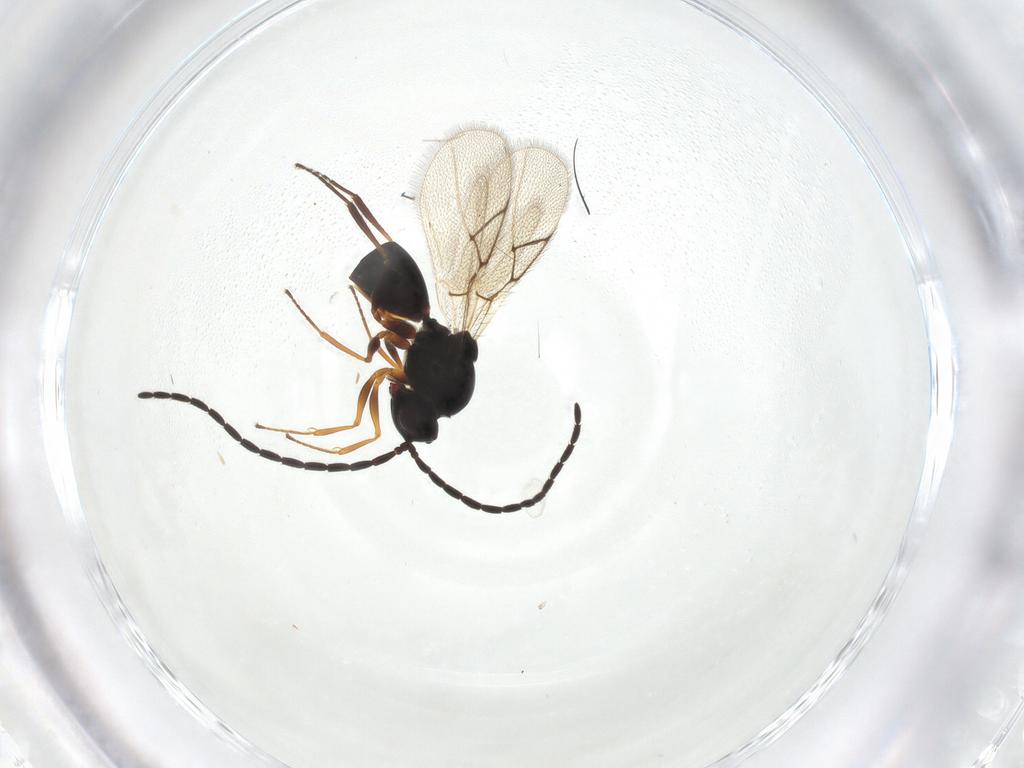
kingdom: Animalia
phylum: Arthropoda
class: Insecta
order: Hymenoptera
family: Figitidae
